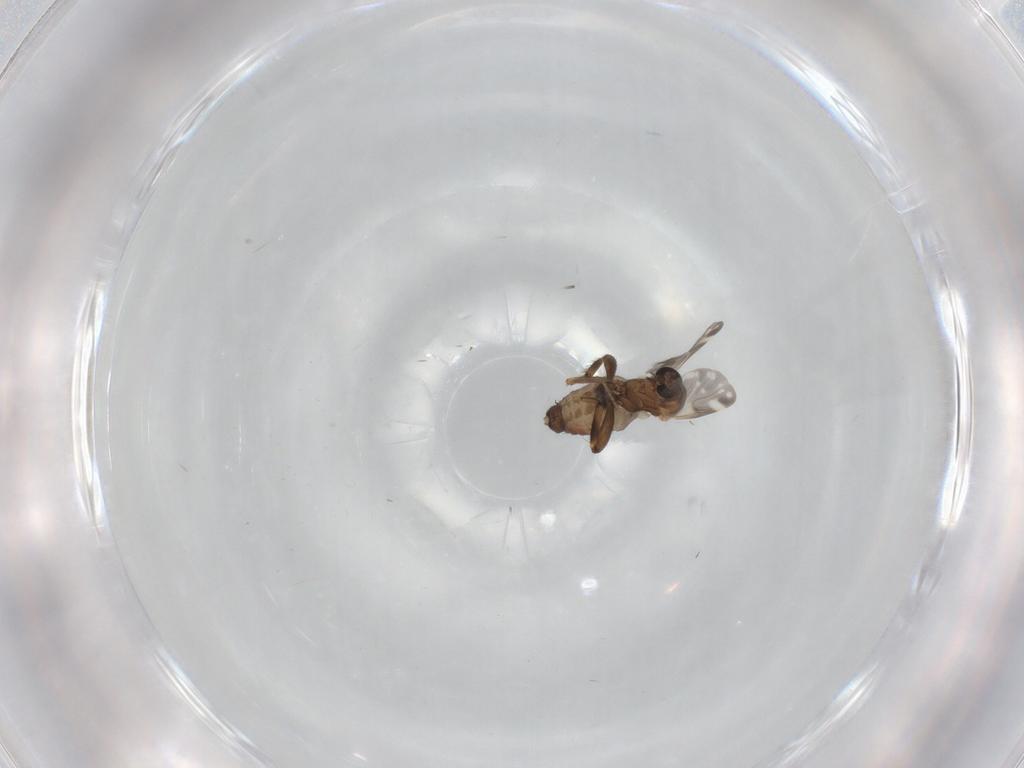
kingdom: Animalia
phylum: Arthropoda
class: Insecta
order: Diptera
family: Ceratopogonidae
